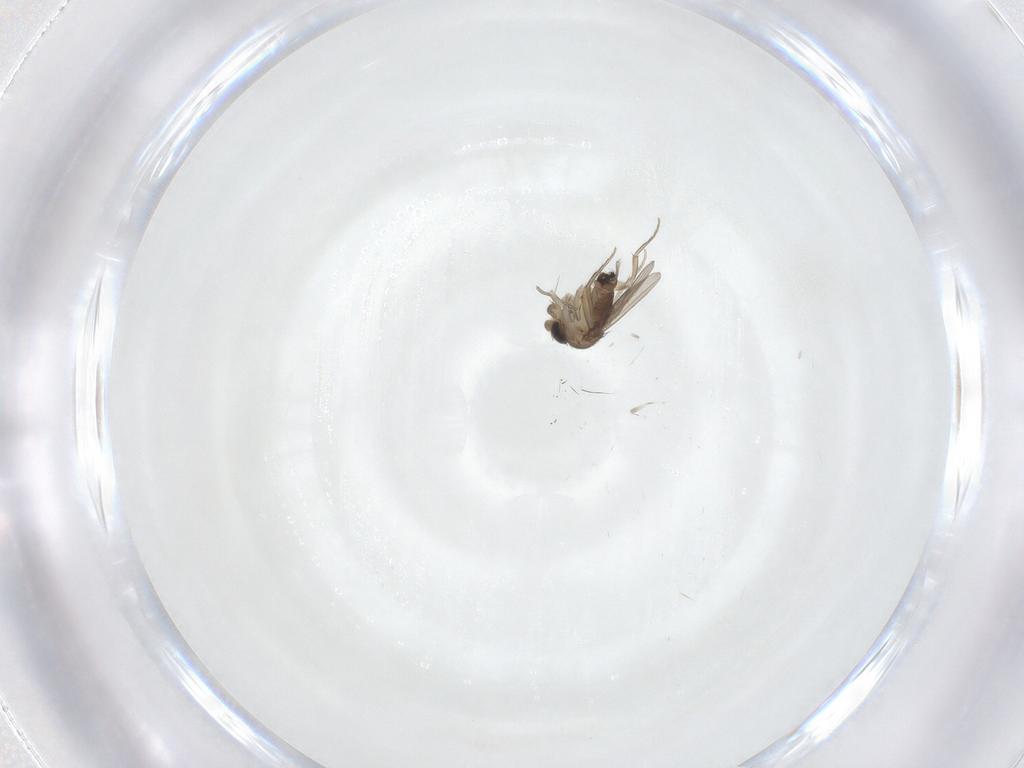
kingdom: Animalia
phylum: Arthropoda
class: Insecta
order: Diptera
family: Phoridae
